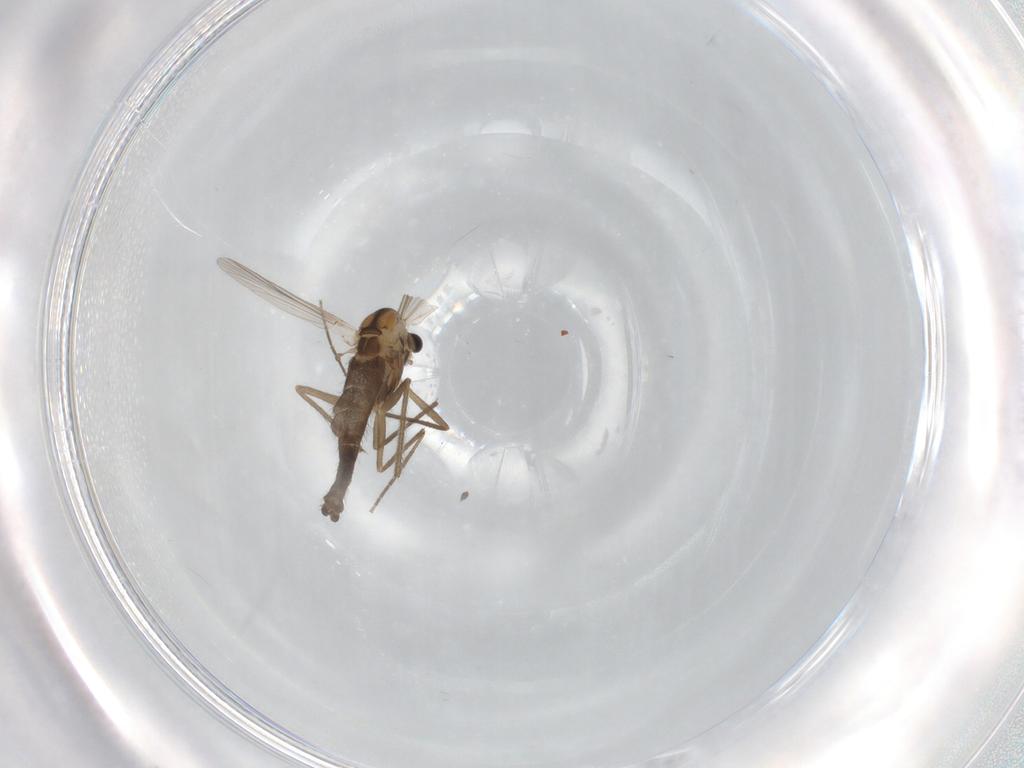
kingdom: Animalia
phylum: Arthropoda
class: Insecta
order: Diptera
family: Chironomidae
